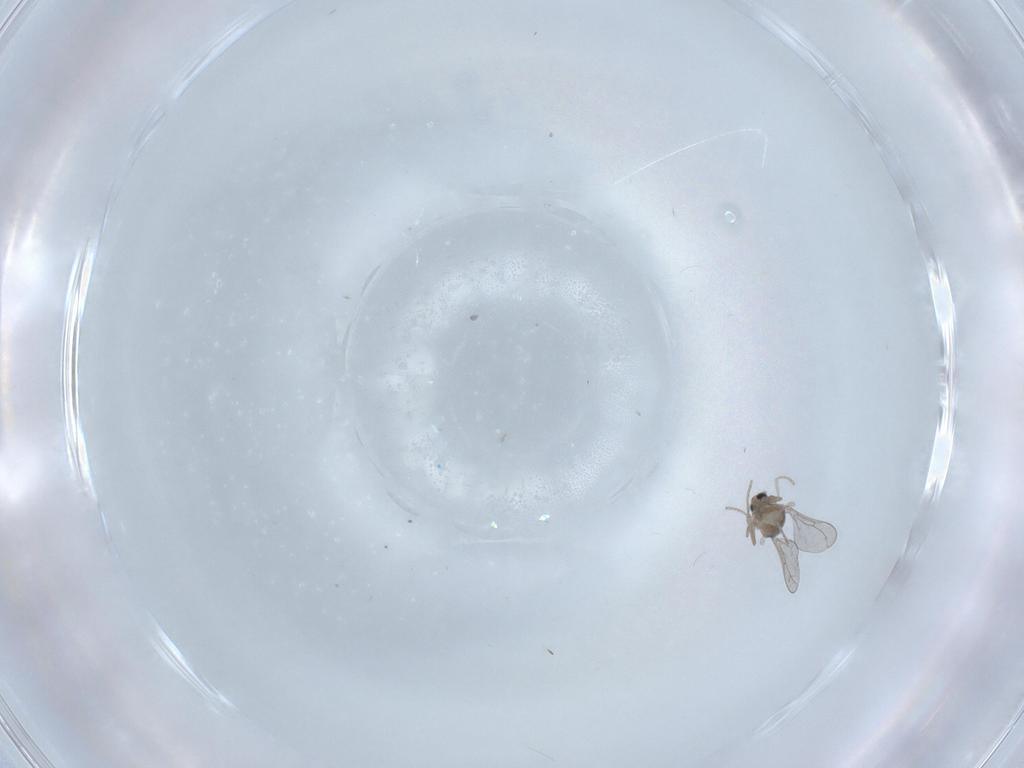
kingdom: Animalia
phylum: Arthropoda
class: Insecta
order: Diptera
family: Cecidomyiidae
